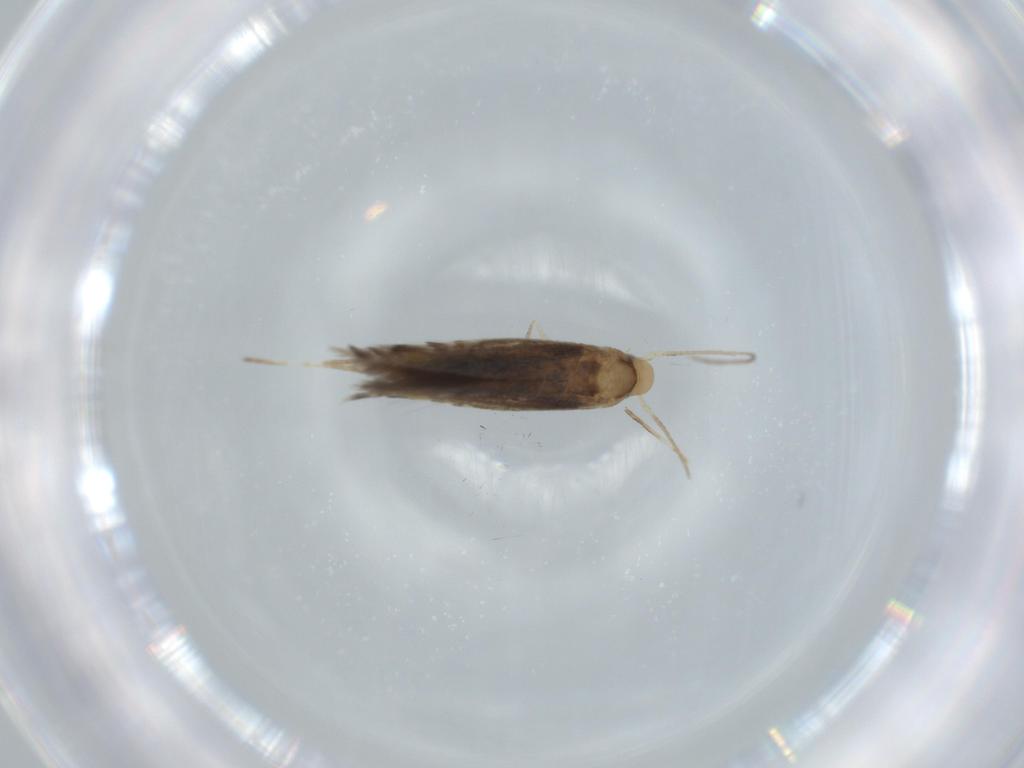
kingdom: Animalia
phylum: Arthropoda
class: Insecta
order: Lepidoptera
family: Nepticulidae
